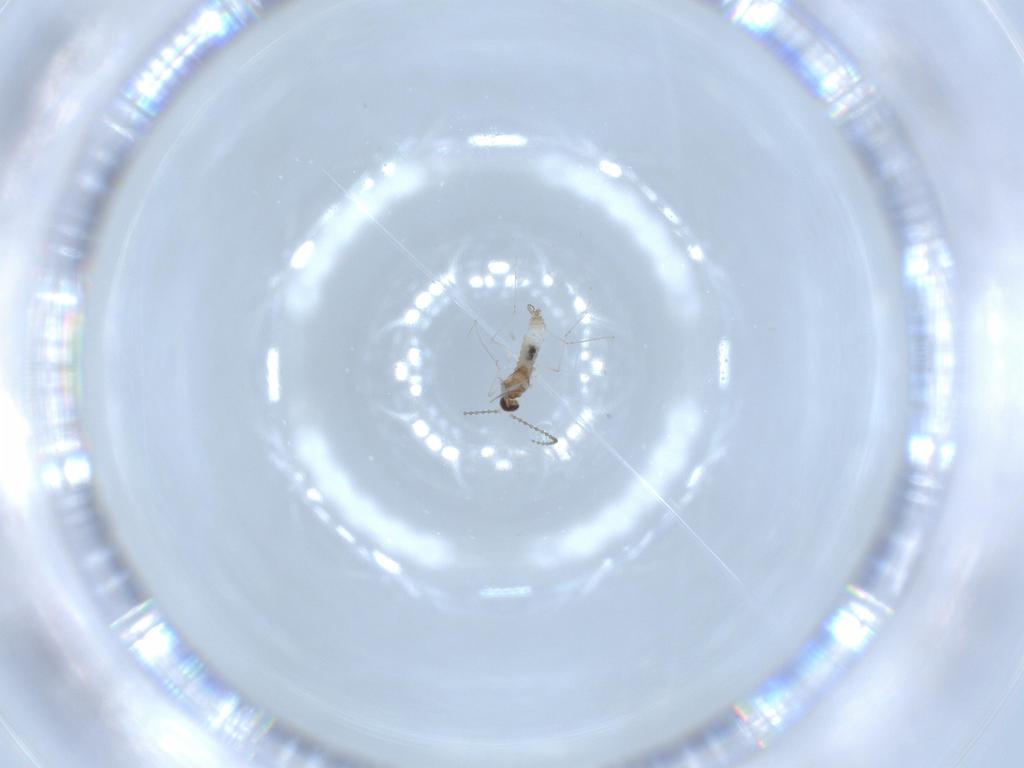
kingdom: Animalia
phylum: Arthropoda
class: Insecta
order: Diptera
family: Cecidomyiidae
